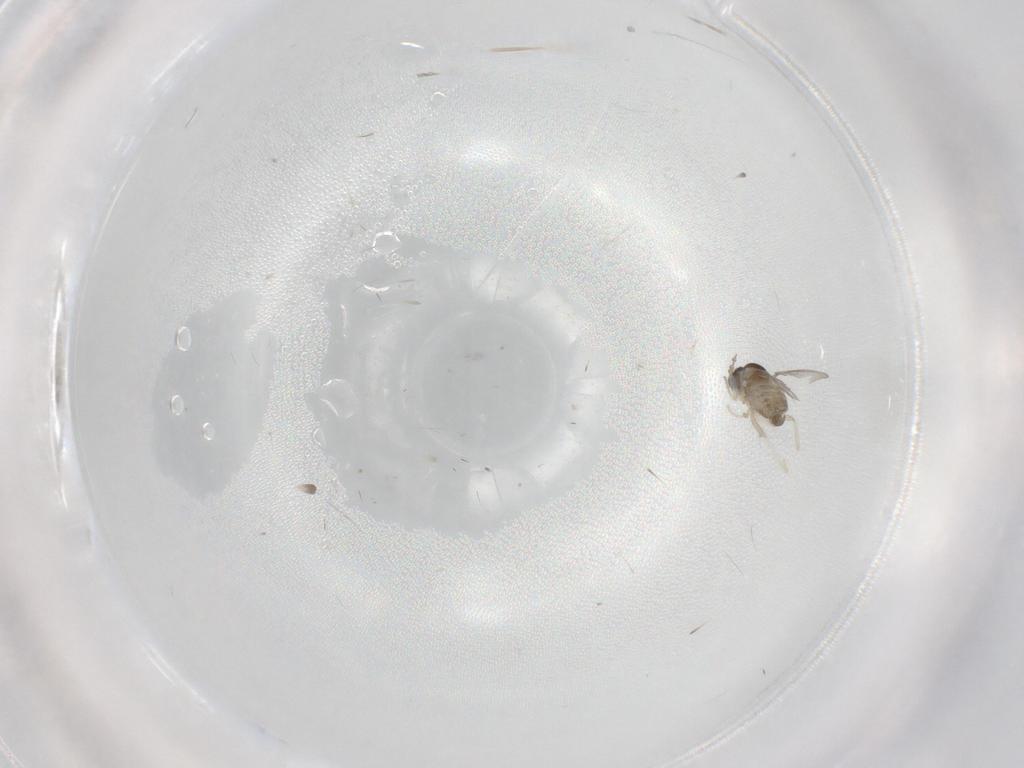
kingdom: Animalia
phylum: Arthropoda
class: Insecta
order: Diptera
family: Cecidomyiidae
